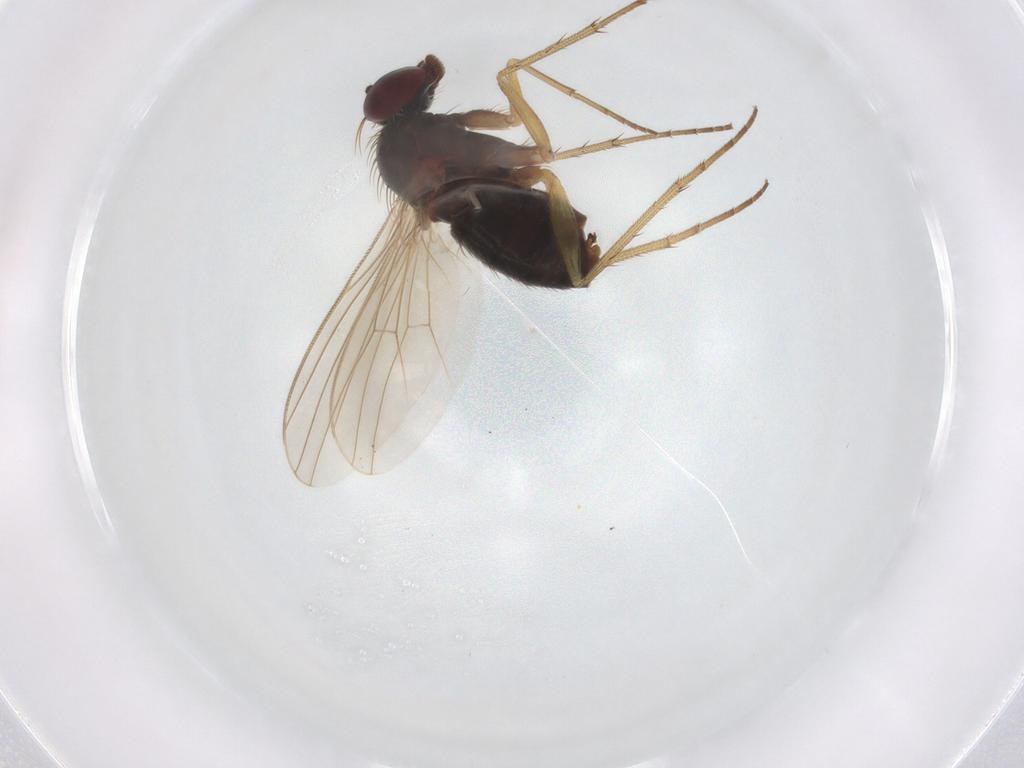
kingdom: Animalia
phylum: Arthropoda
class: Insecta
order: Diptera
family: Dolichopodidae
